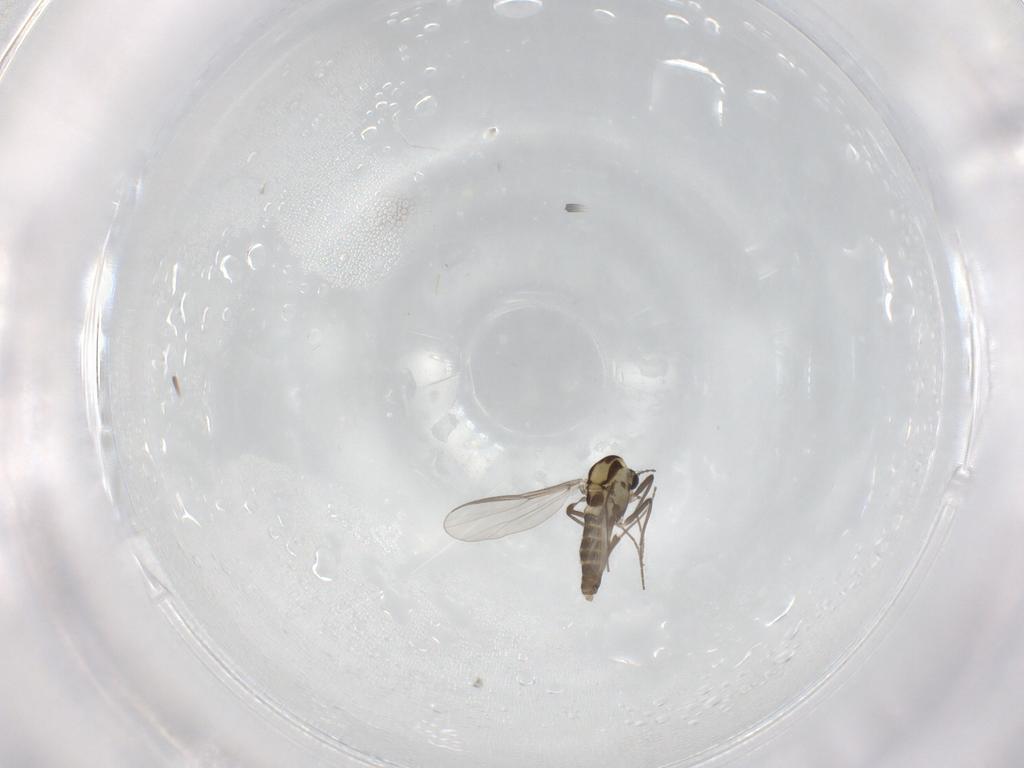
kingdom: Animalia
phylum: Arthropoda
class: Insecta
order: Diptera
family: Chironomidae
